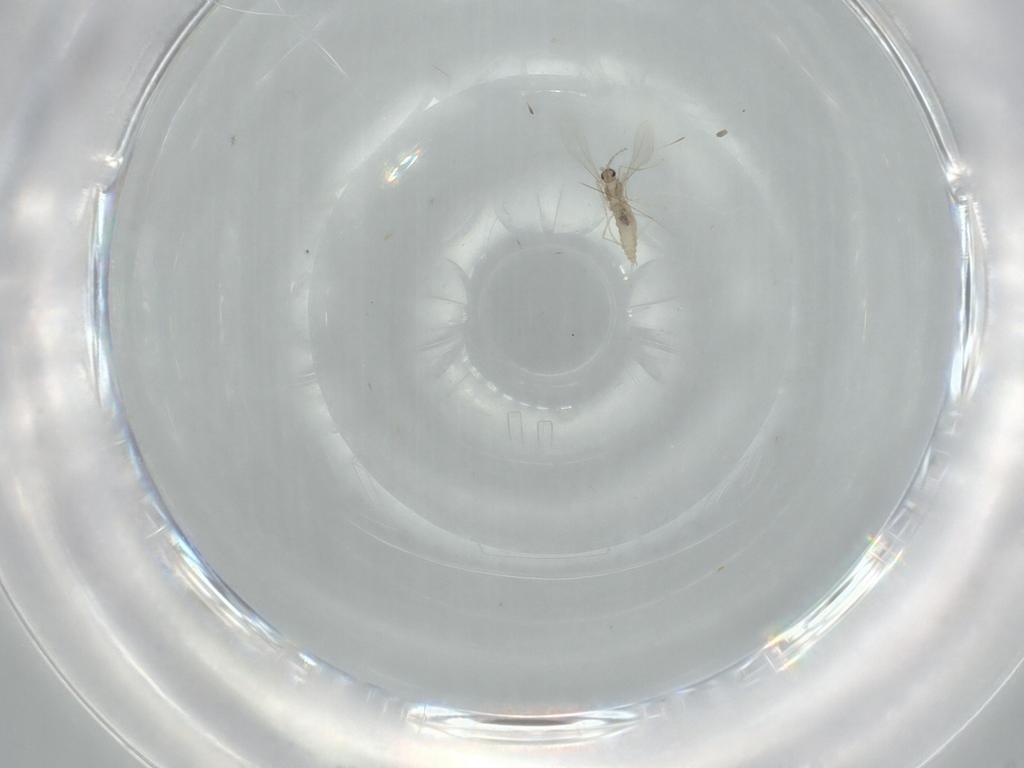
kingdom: Animalia
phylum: Arthropoda
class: Insecta
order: Diptera
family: Cecidomyiidae
